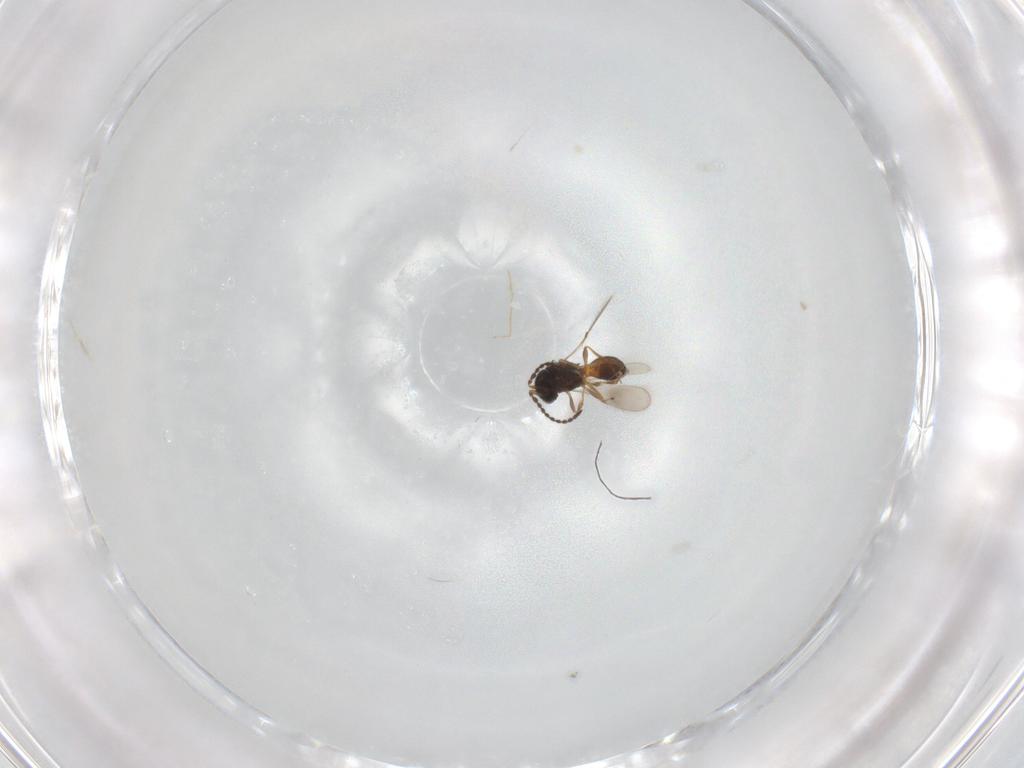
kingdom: Animalia
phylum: Arthropoda
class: Insecta
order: Hymenoptera
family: Scelionidae
